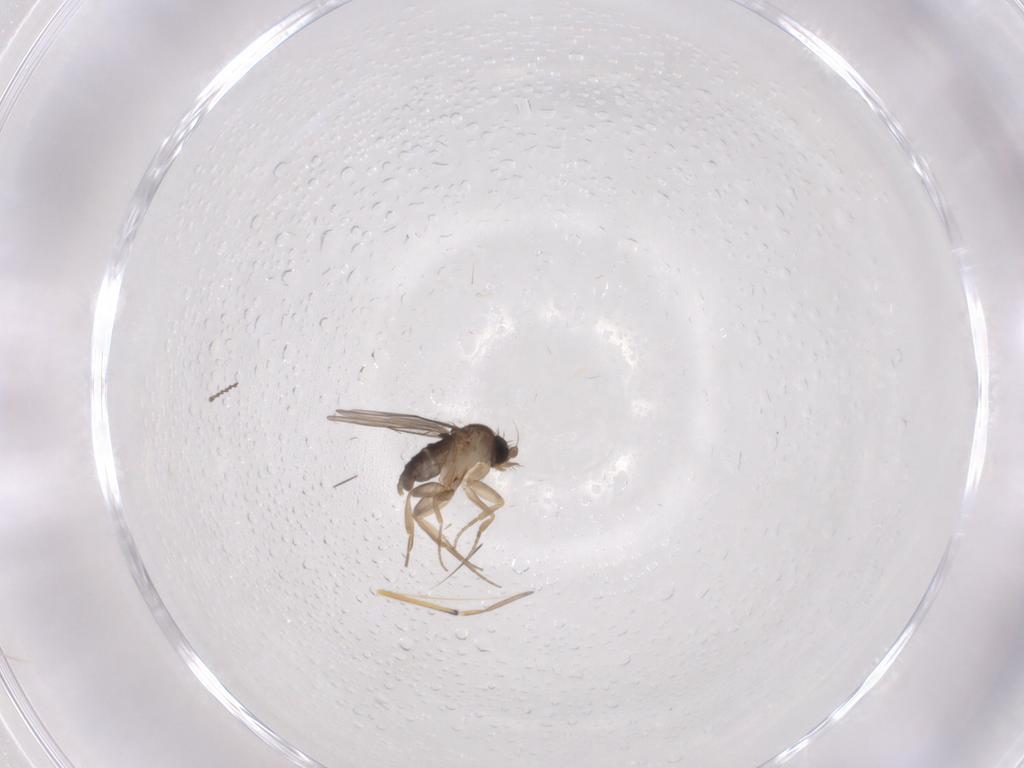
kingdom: Animalia
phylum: Arthropoda
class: Insecta
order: Diptera
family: Phoridae
